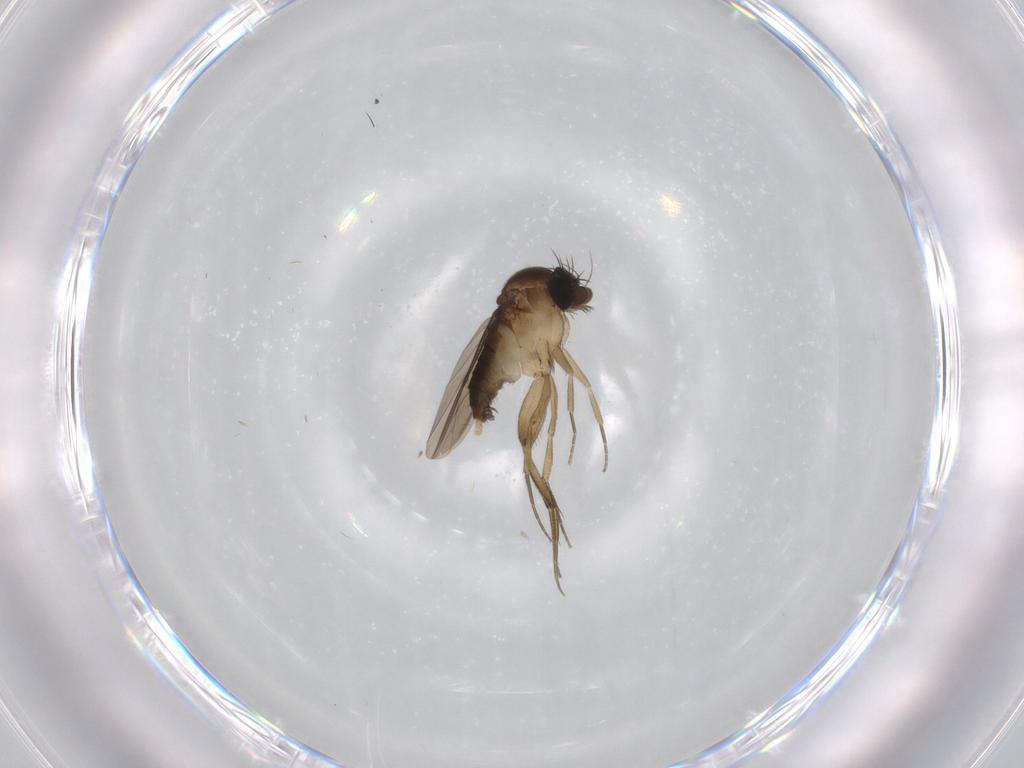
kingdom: Animalia
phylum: Arthropoda
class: Insecta
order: Diptera
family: Phoridae
